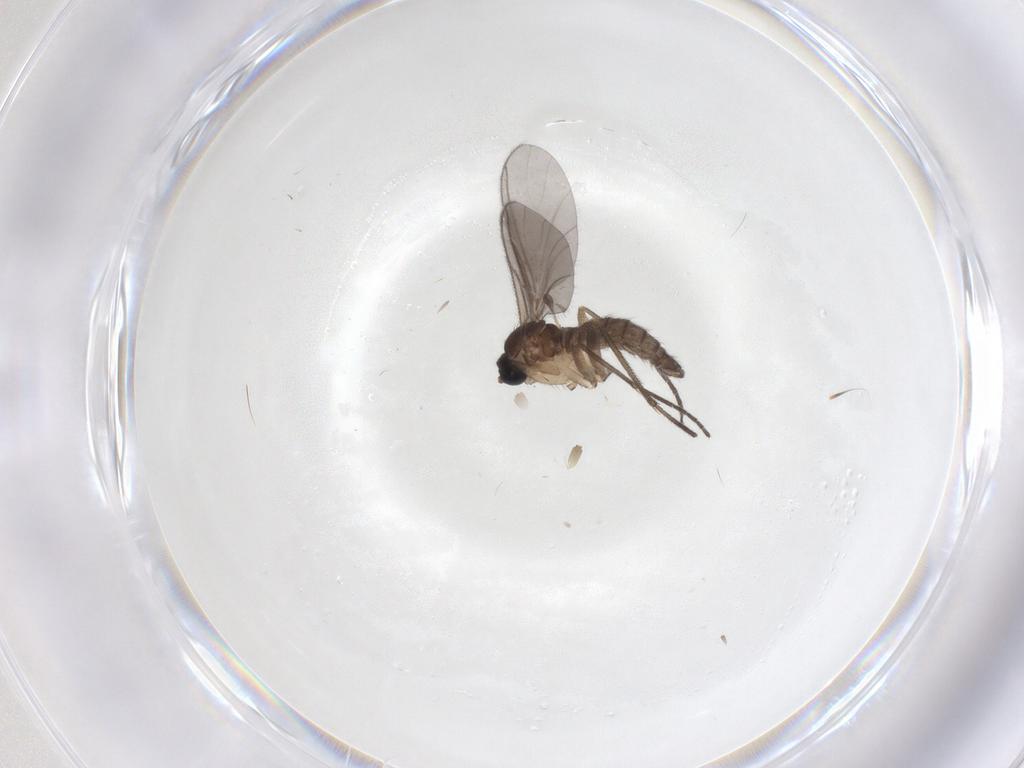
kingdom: Animalia
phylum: Arthropoda
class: Insecta
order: Diptera
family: Sciaridae
